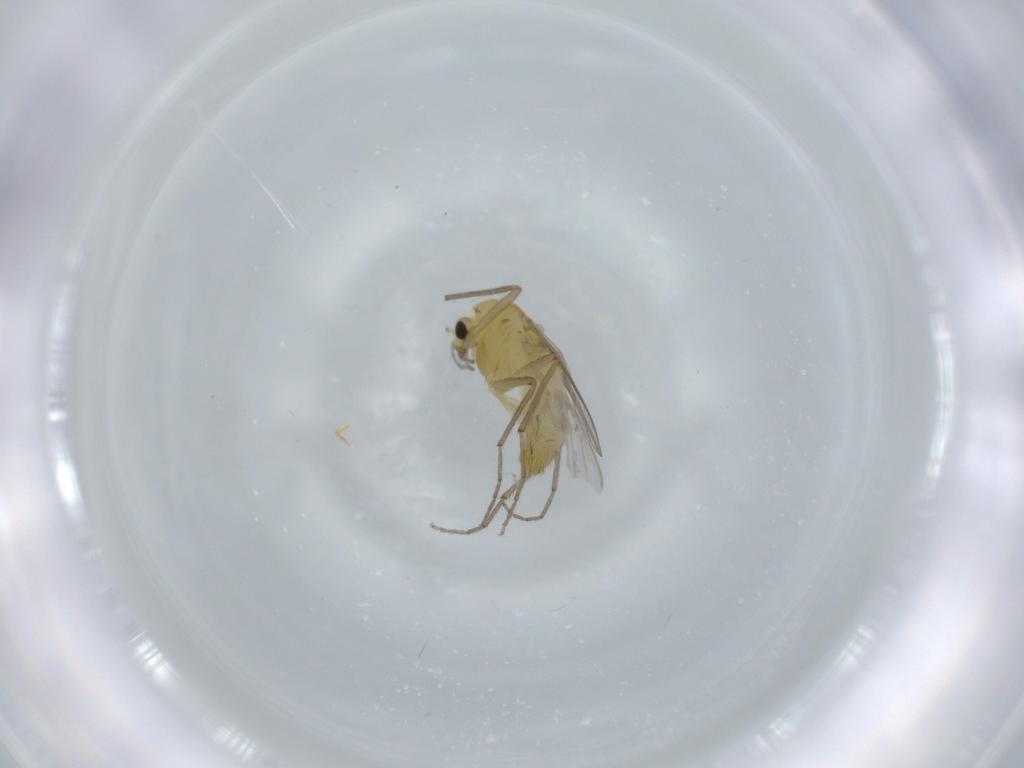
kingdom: Animalia
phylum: Arthropoda
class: Insecta
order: Diptera
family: Chironomidae
